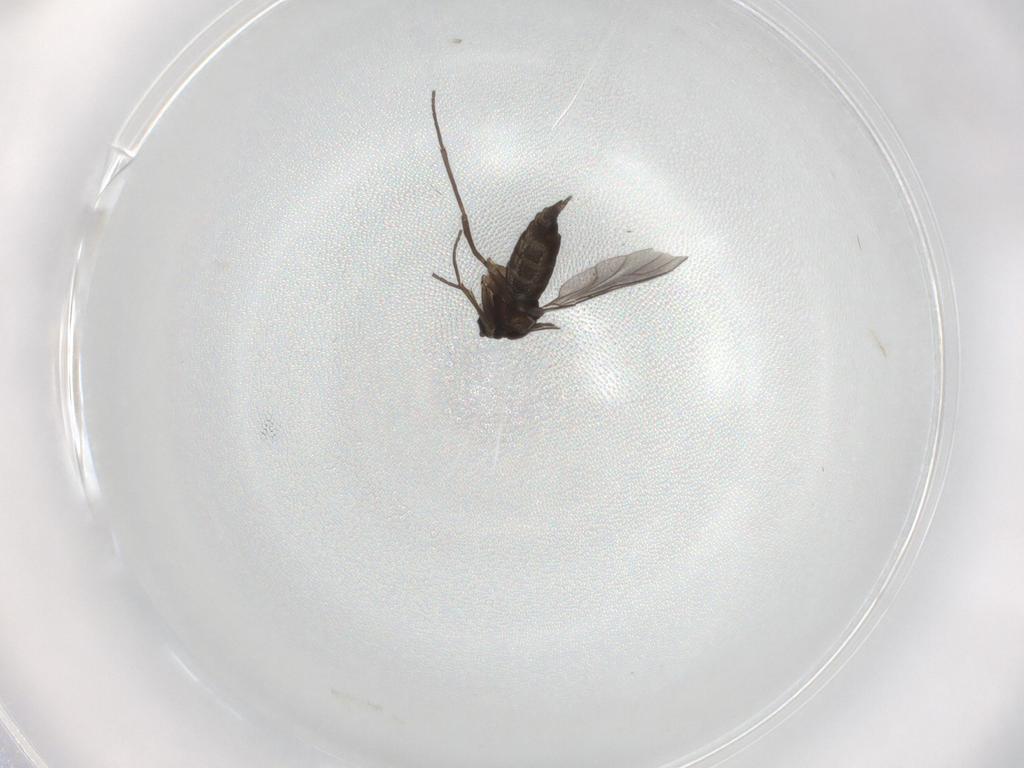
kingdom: Animalia
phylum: Arthropoda
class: Insecta
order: Diptera
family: Sciaridae
